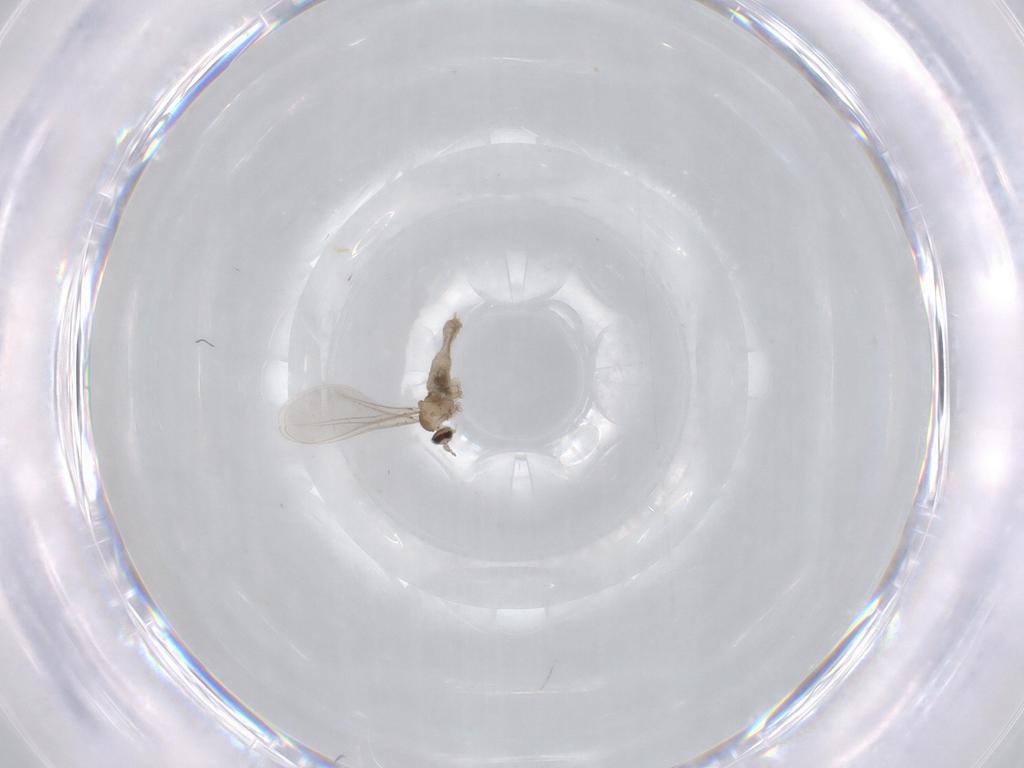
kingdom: Animalia
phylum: Arthropoda
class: Insecta
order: Diptera
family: Cecidomyiidae
